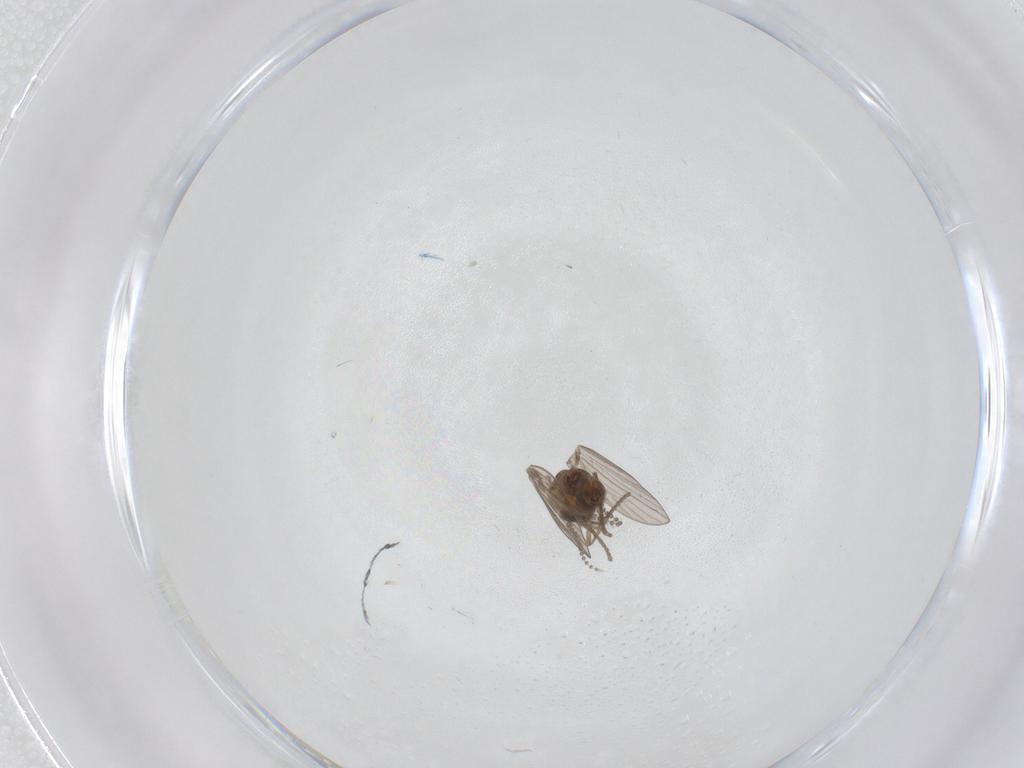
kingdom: Animalia
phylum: Arthropoda
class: Insecta
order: Diptera
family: Psychodidae
